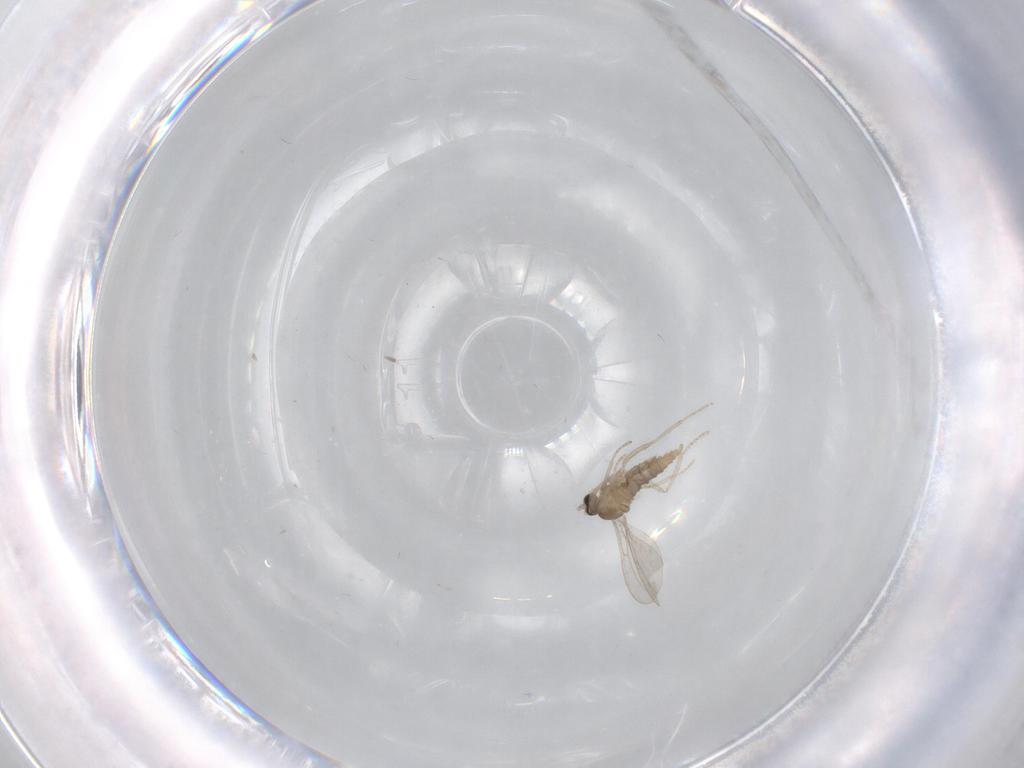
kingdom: Animalia
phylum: Arthropoda
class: Insecta
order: Diptera
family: Cecidomyiidae
